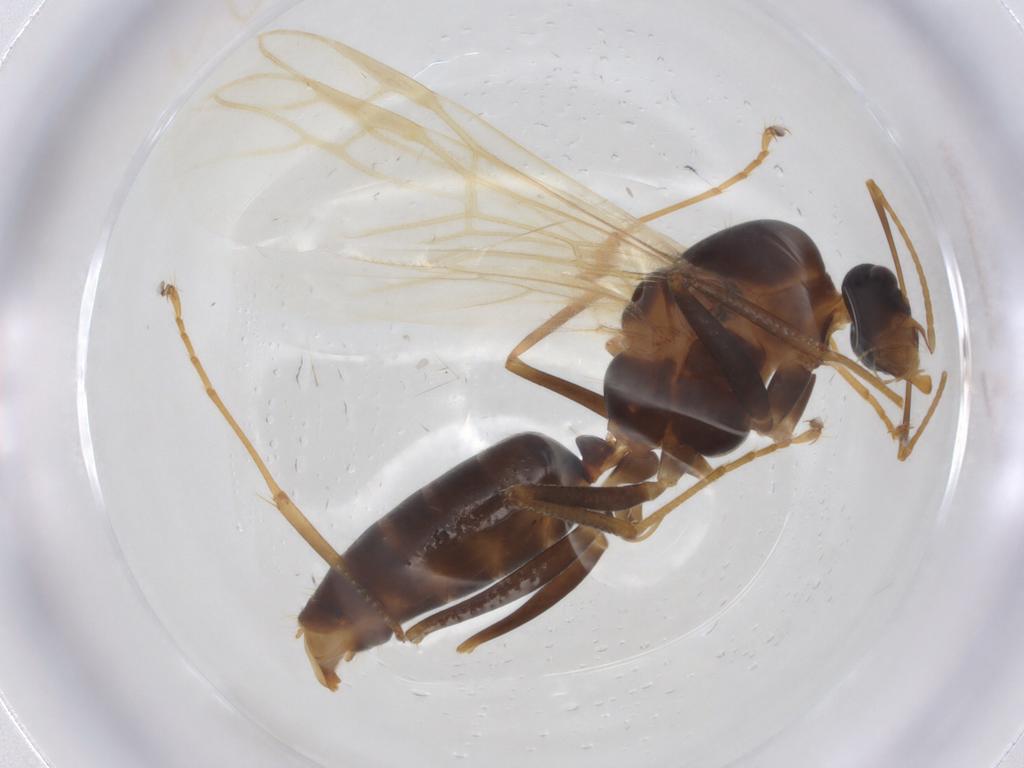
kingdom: Animalia
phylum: Arthropoda
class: Insecta
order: Hymenoptera
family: Formicidae
